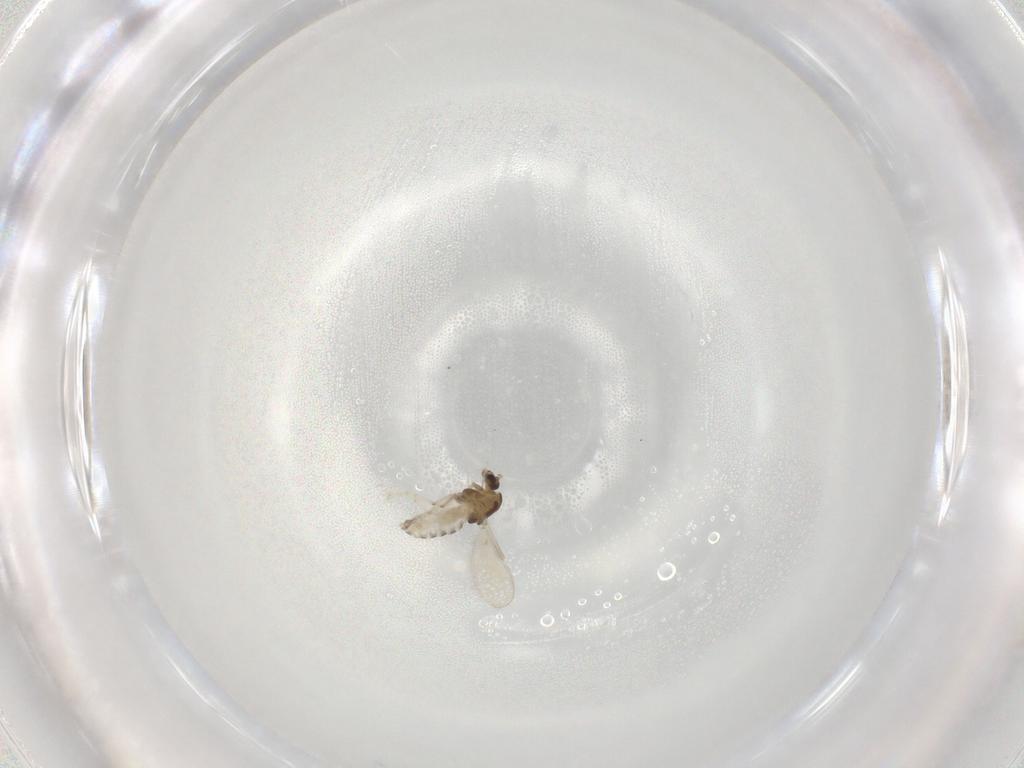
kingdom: Animalia
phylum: Arthropoda
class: Insecta
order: Diptera
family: Chironomidae
